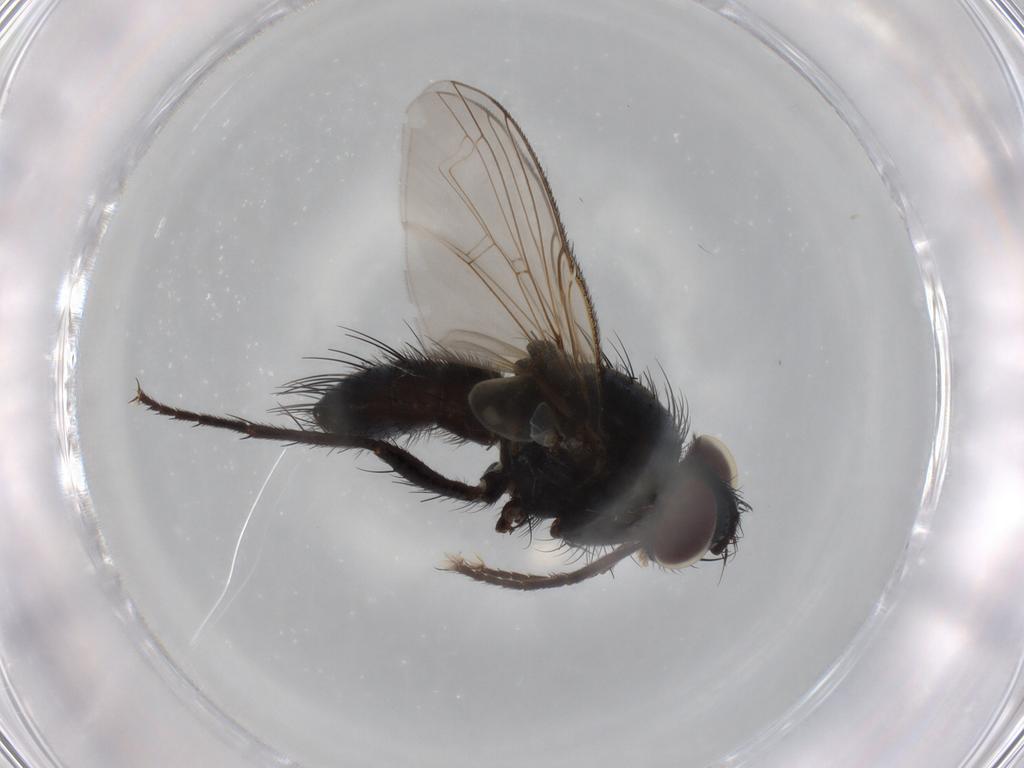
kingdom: Animalia
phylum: Arthropoda
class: Insecta
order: Diptera
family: Tachinidae
